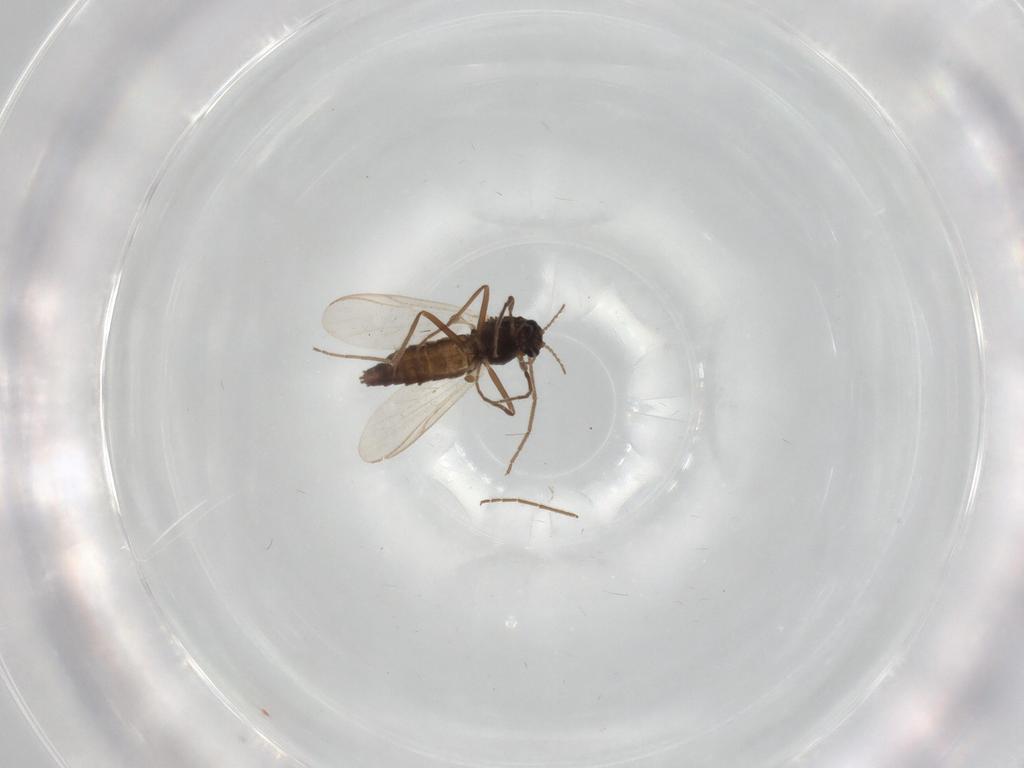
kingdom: Animalia
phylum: Arthropoda
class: Insecta
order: Diptera
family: Chironomidae
